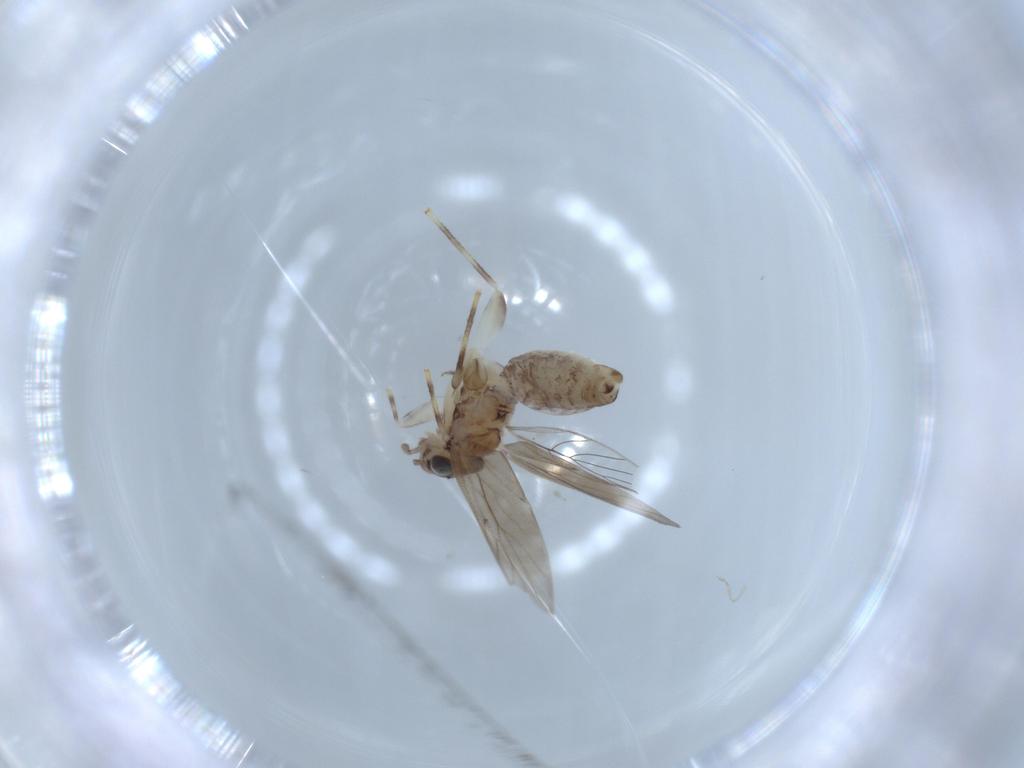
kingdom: Animalia
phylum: Arthropoda
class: Insecta
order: Psocodea
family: Lepidopsocidae
